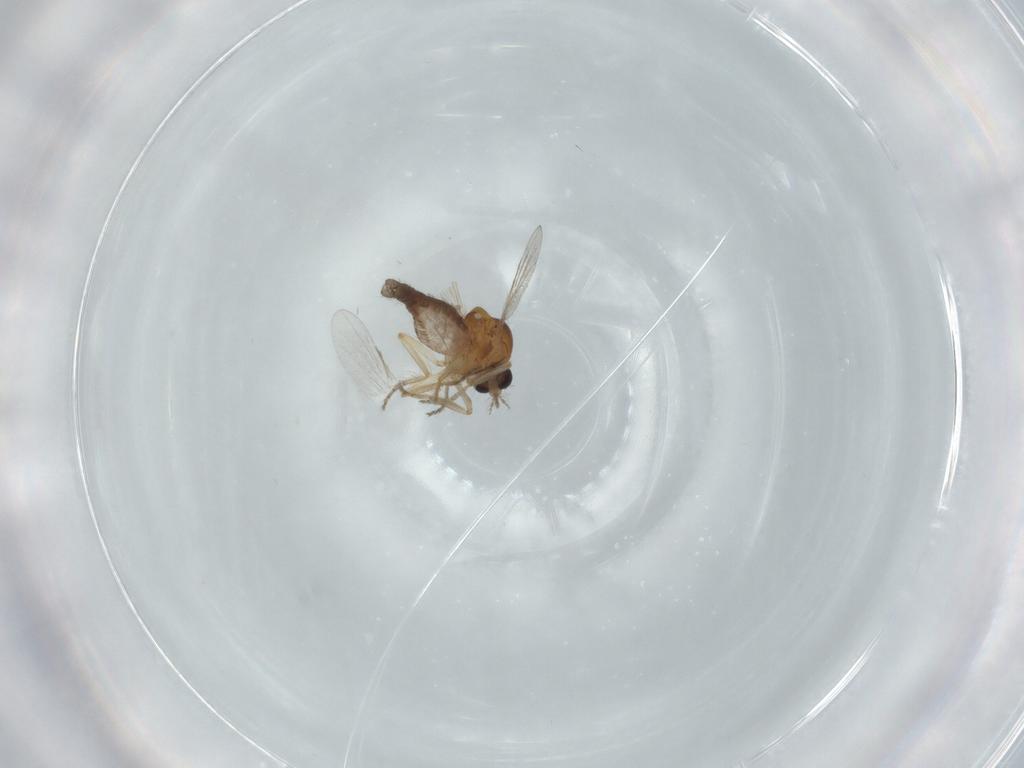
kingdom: Animalia
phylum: Arthropoda
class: Insecta
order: Diptera
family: Ceratopogonidae
